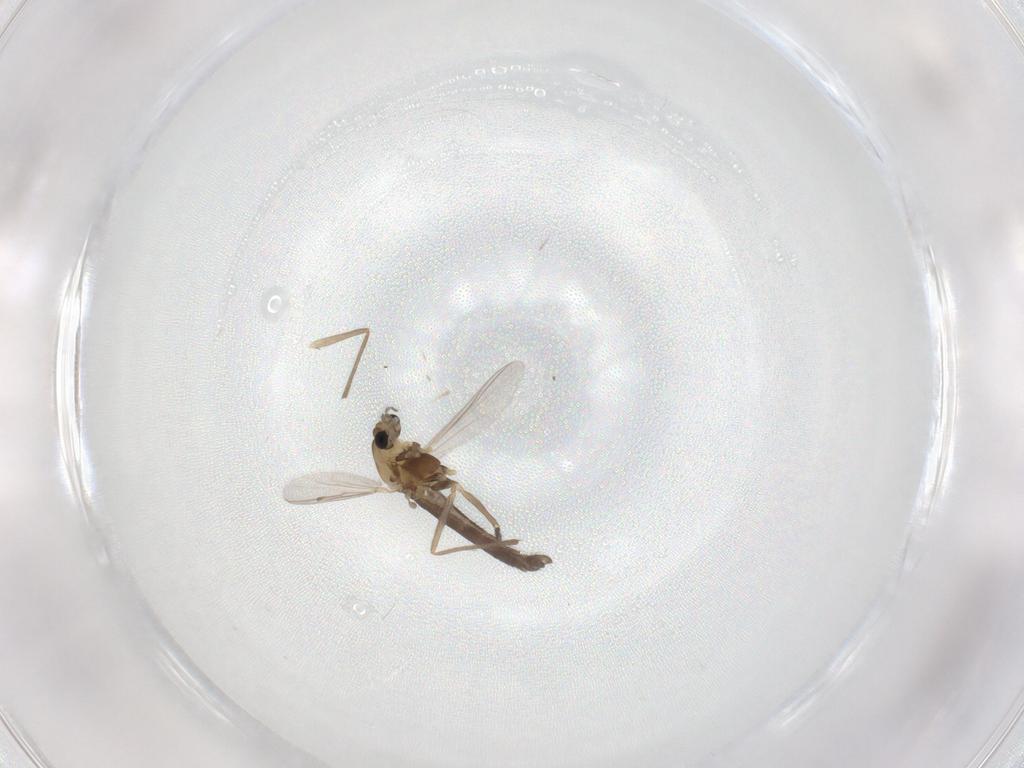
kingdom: Animalia
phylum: Arthropoda
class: Insecta
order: Diptera
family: Chironomidae
